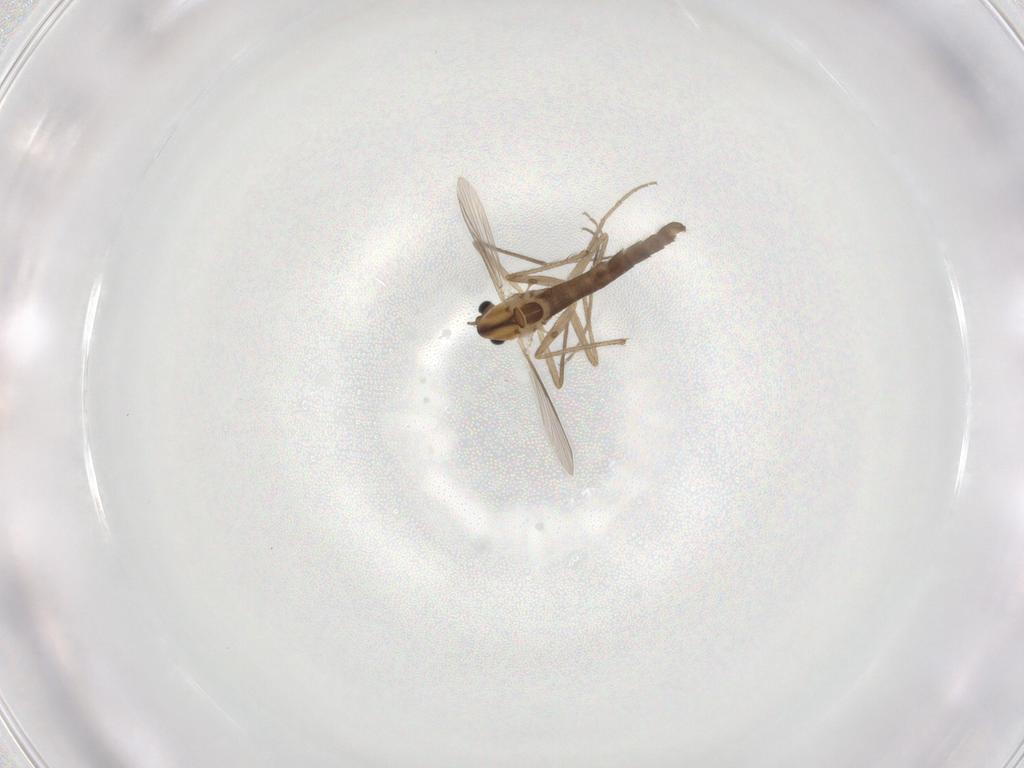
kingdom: Animalia
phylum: Arthropoda
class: Insecta
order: Diptera
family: Chironomidae
